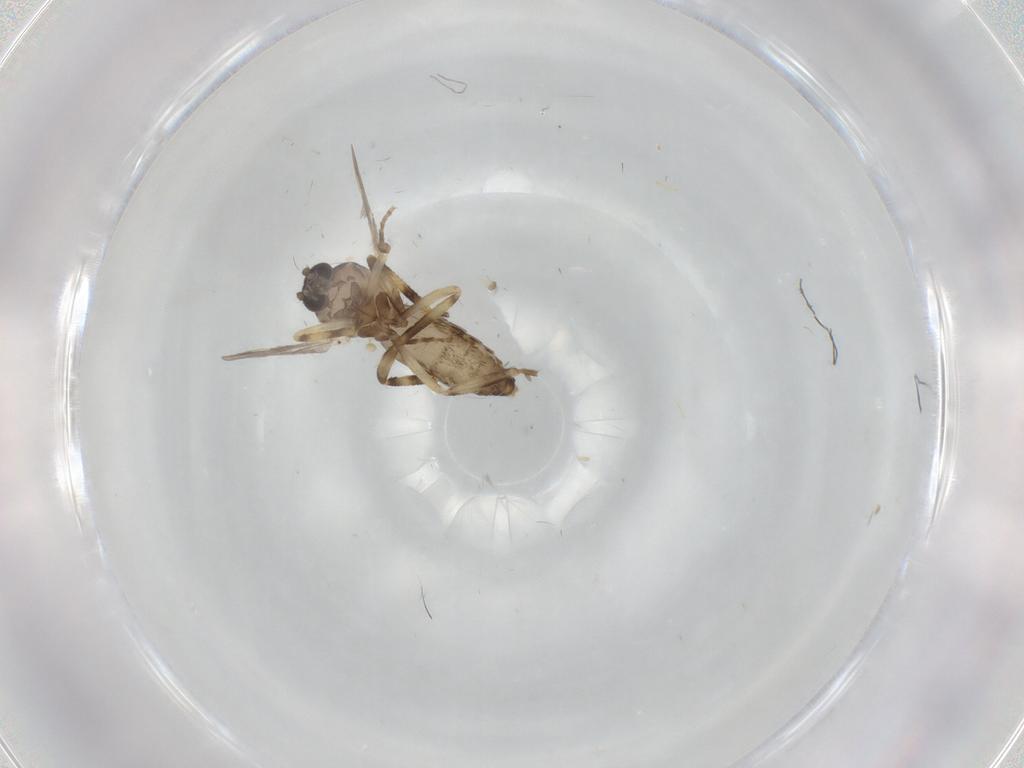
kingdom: Animalia
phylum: Arthropoda
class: Insecta
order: Diptera
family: Ceratopogonidae
